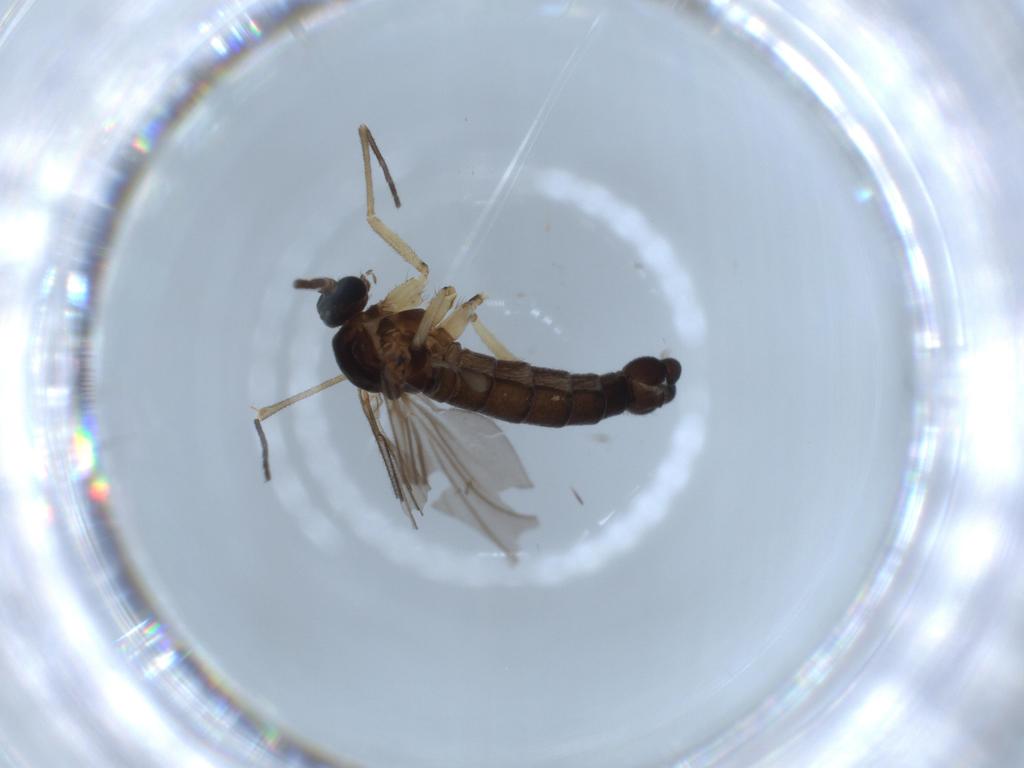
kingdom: Animalia
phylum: Arthropoda
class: Insecta
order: Diptera
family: Sciaridae
